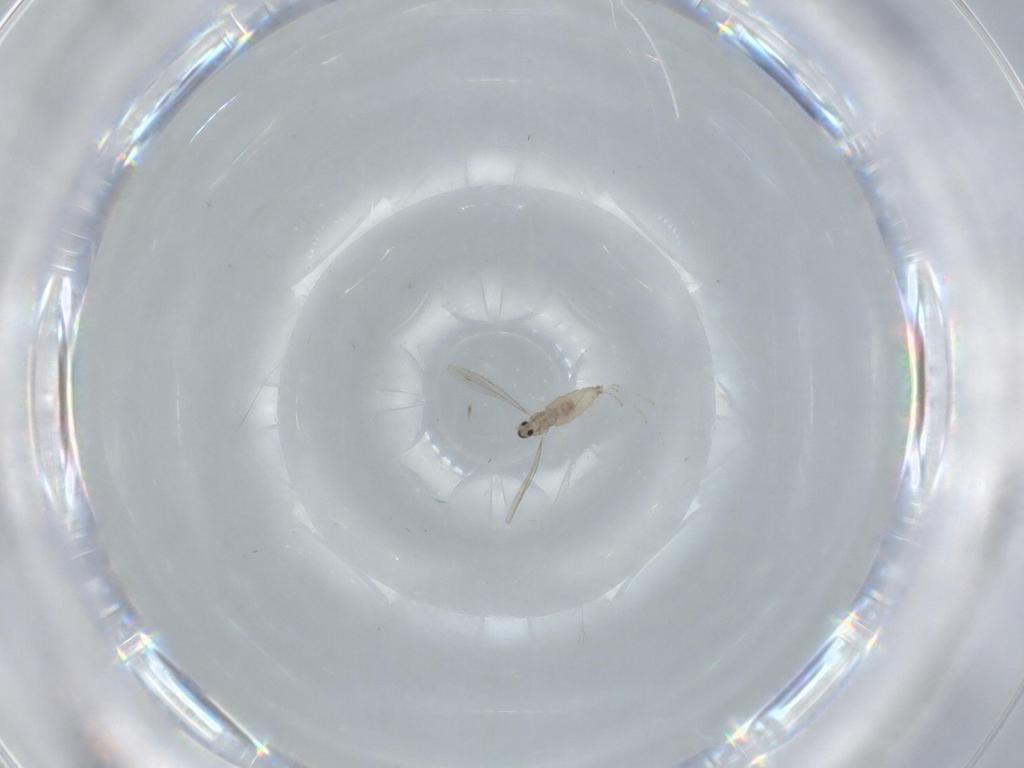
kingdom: Animalia
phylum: Arthropoda
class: Insecta
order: Diptera
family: Cecidomyiidae
